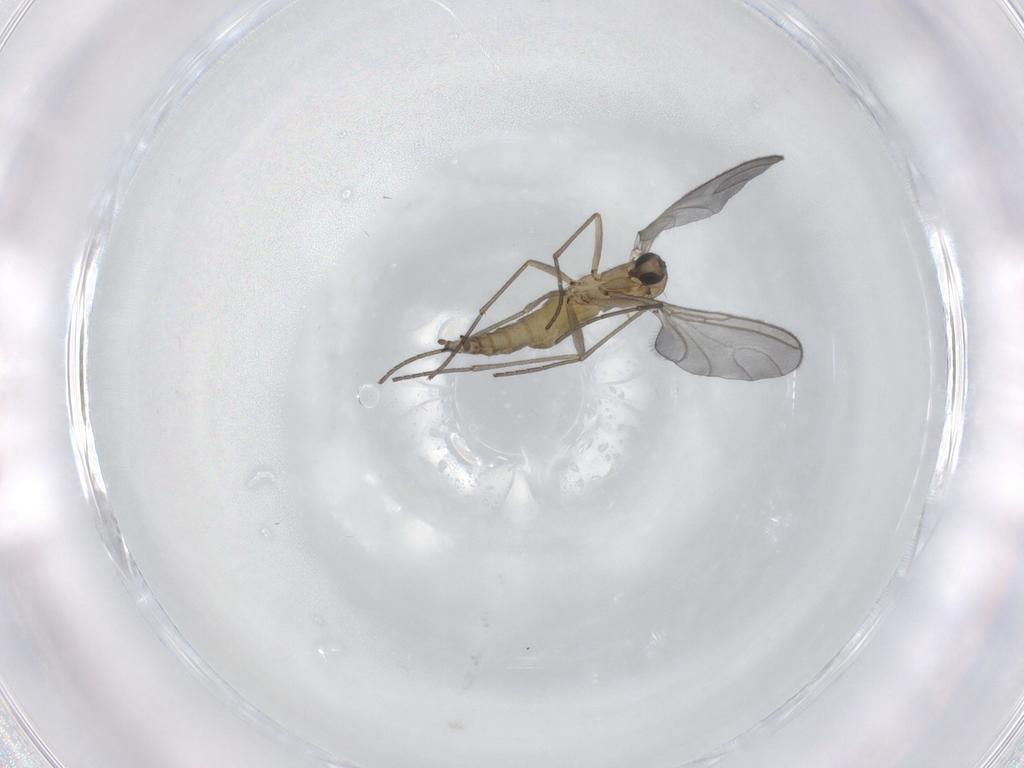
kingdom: Animalia
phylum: Arthropoda
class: Insecta
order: Diptera
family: Sciaridae
